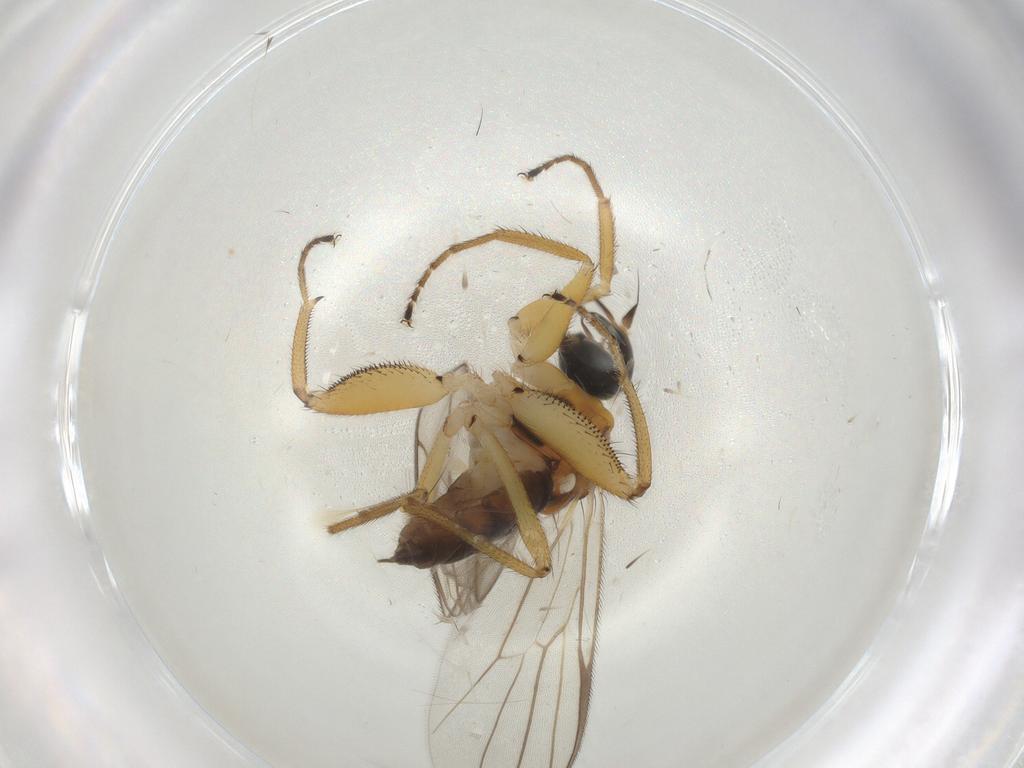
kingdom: Animalia
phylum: Arthropoda
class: Insecta
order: Diptera
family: Hybotidae
